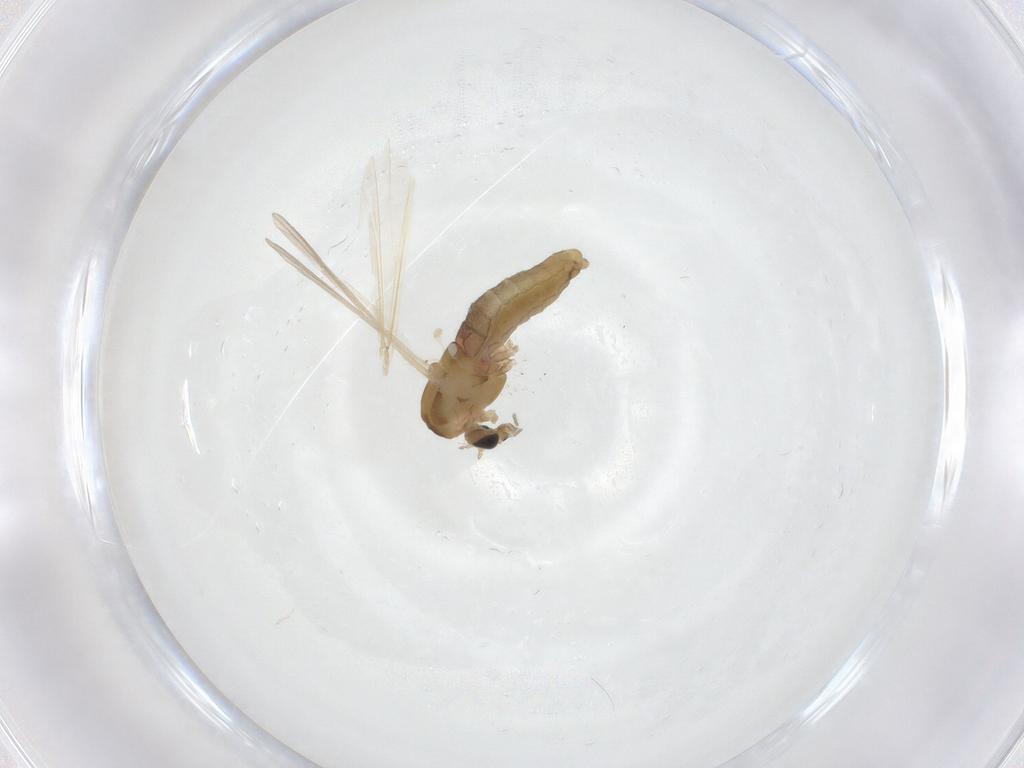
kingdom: Animalia
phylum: Arthropoda
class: Insecta
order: Diptera
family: Chironomidae
